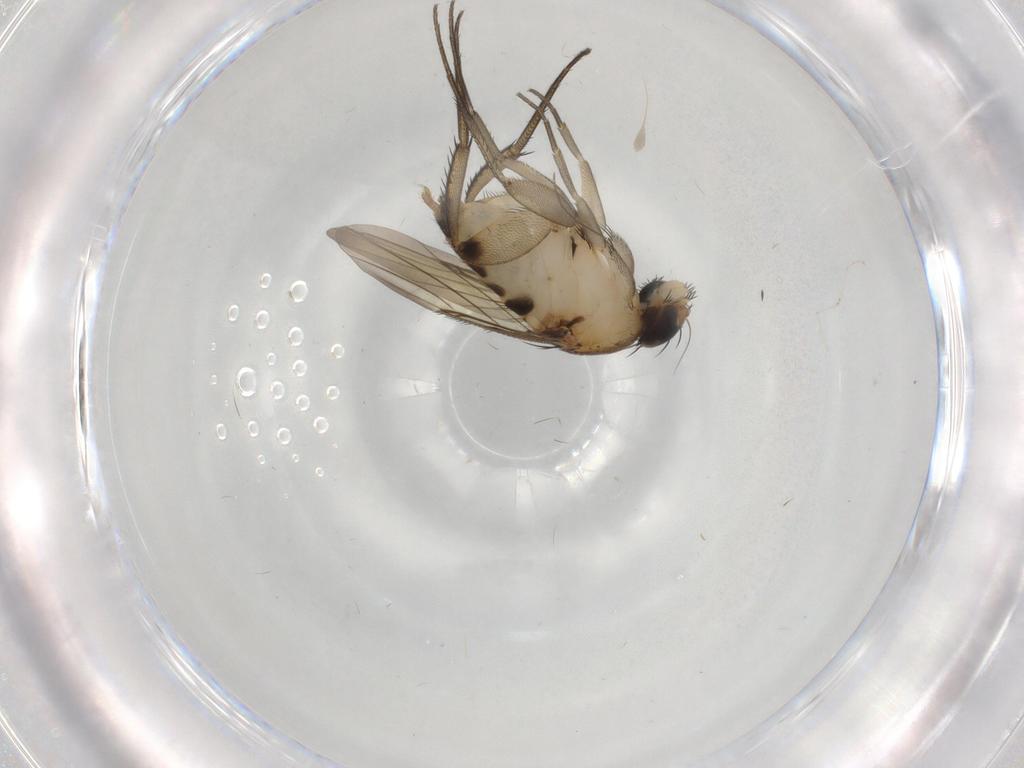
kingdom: Animalia
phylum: Arthropoda
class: Insecta
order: Diptera
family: Phoridae
